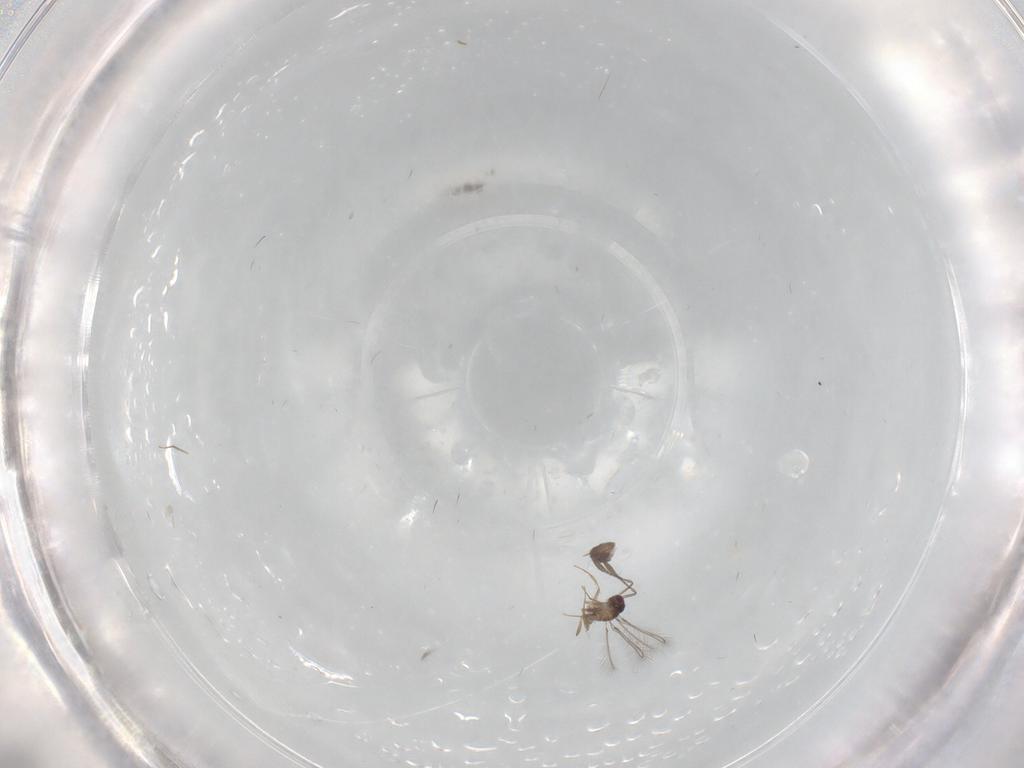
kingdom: Animalia
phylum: Arthropoda
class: Insecta
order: Hymenoptera
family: Mymaridae
